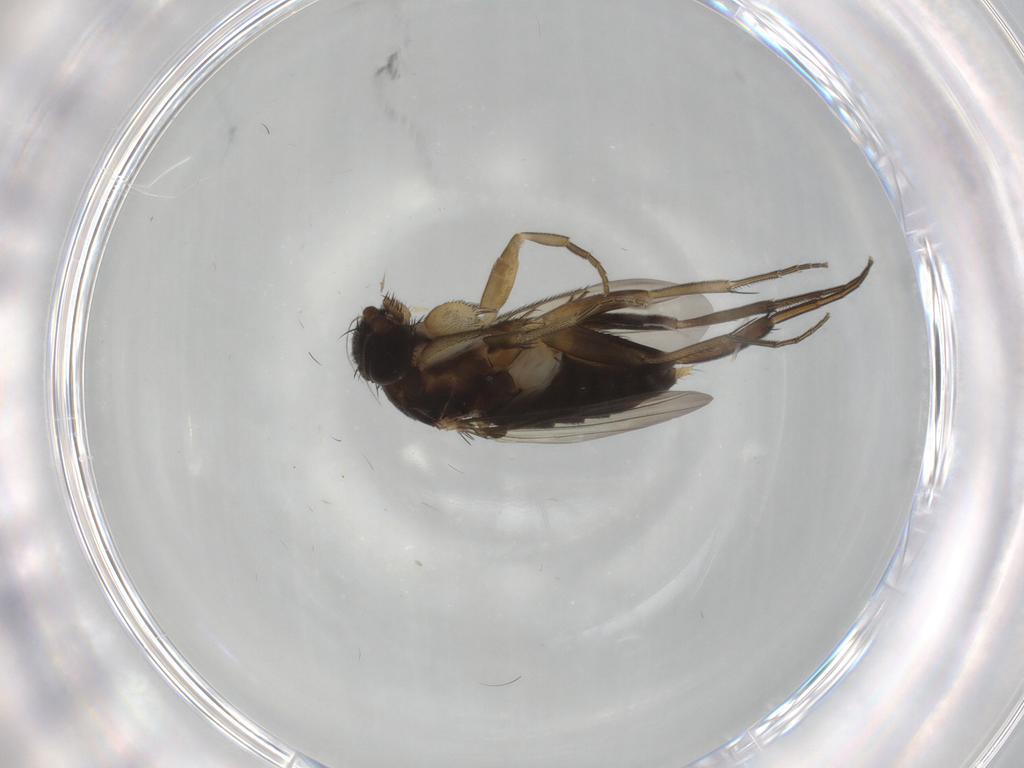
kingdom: Animalia
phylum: Arthropoda
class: Insecta
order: Diptera
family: Phoridae
